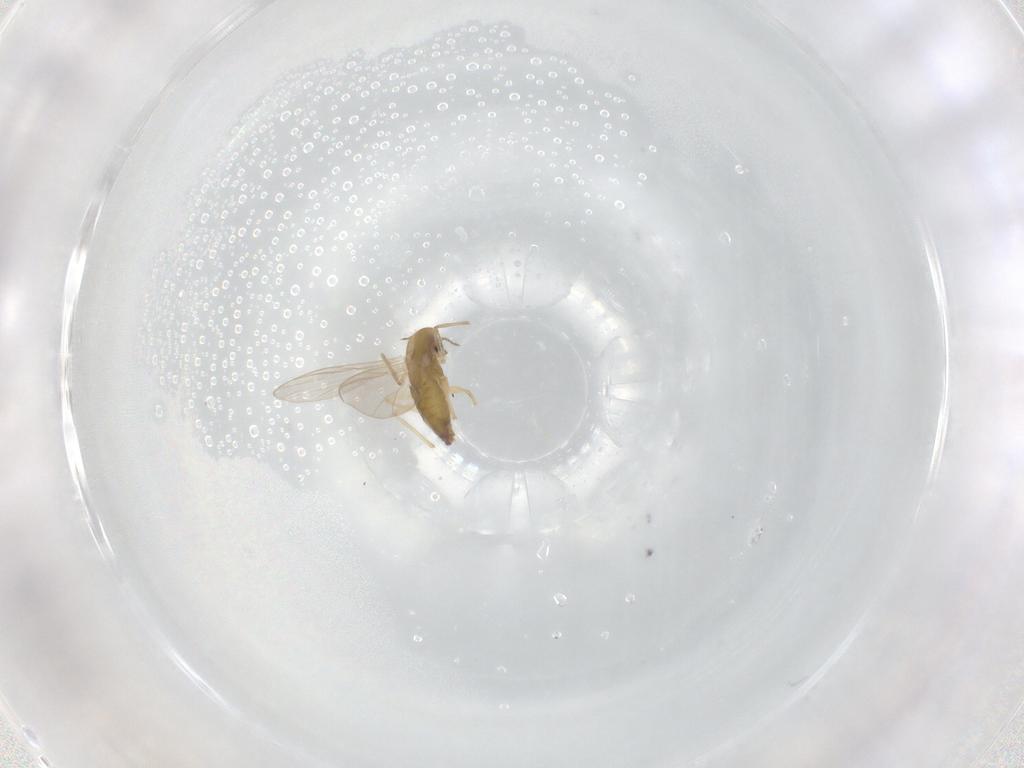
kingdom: Animalia
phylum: Arthropoda
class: Insecta
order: Diptera
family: Chironomidae
